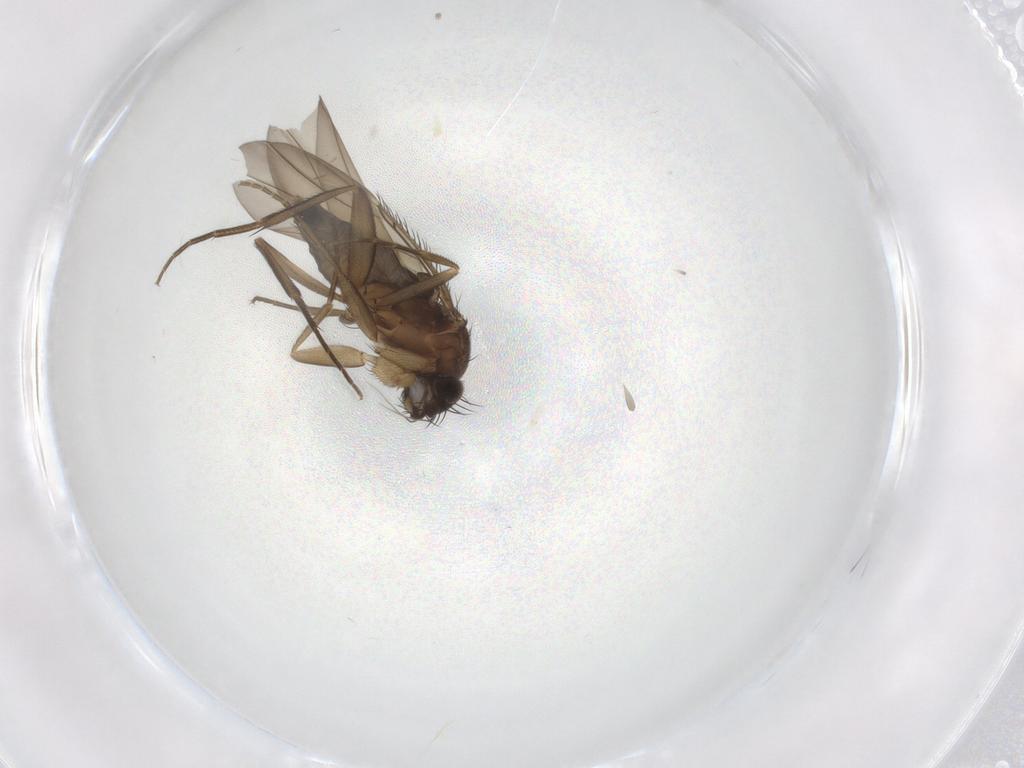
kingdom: Animalia
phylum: Arthropoda
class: Insecta
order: Diptera
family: Phoridae
